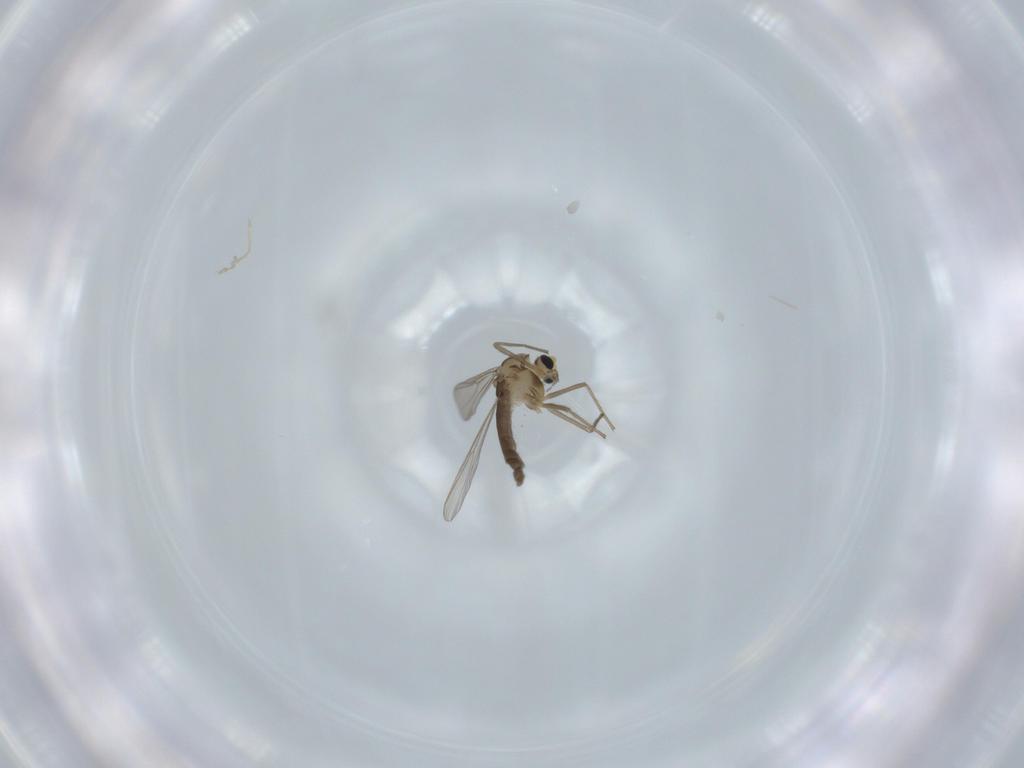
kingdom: Animalia
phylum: Arthropoda
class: Insecta
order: Diptera
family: Chironomidae
